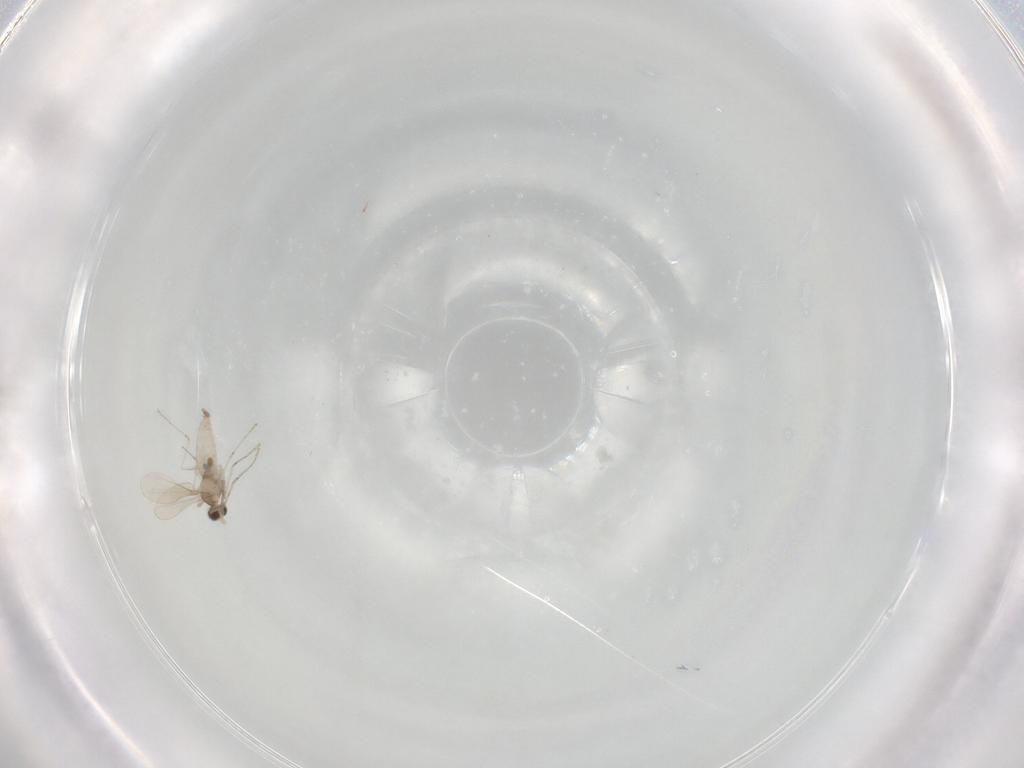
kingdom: Animalia
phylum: Arthropoda
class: Insecta
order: Diptera
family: Cecidomyiidae
